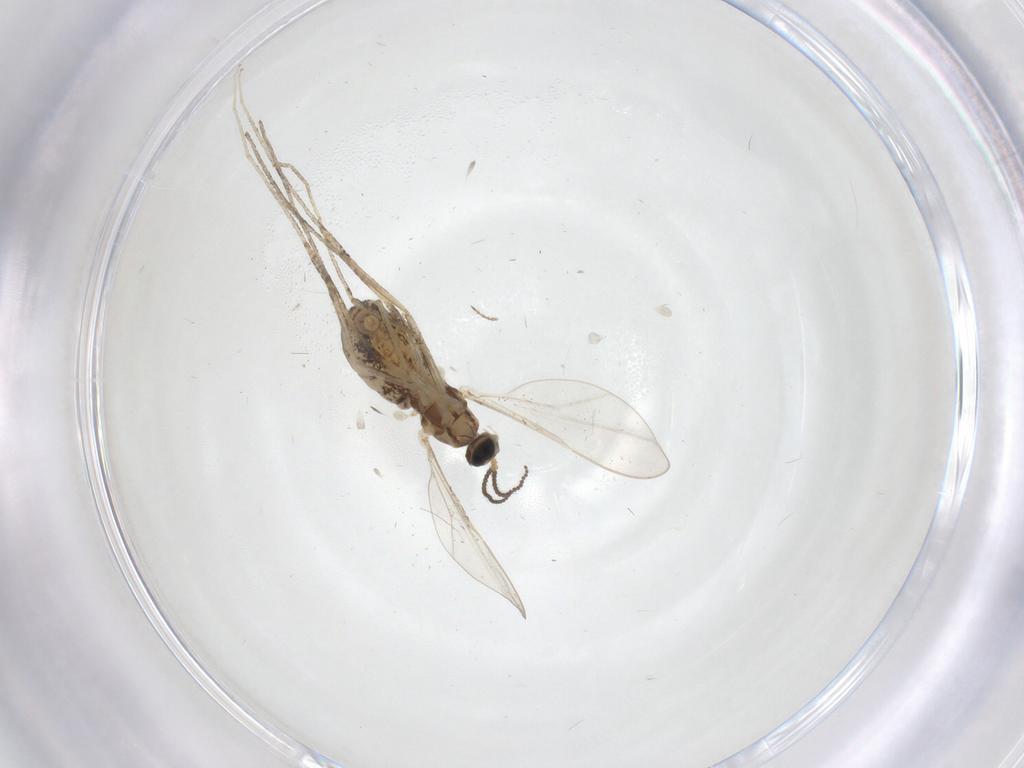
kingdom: Animalia
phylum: Arthropoda
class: Insecta
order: Diptera
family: Cecidomyiidae
